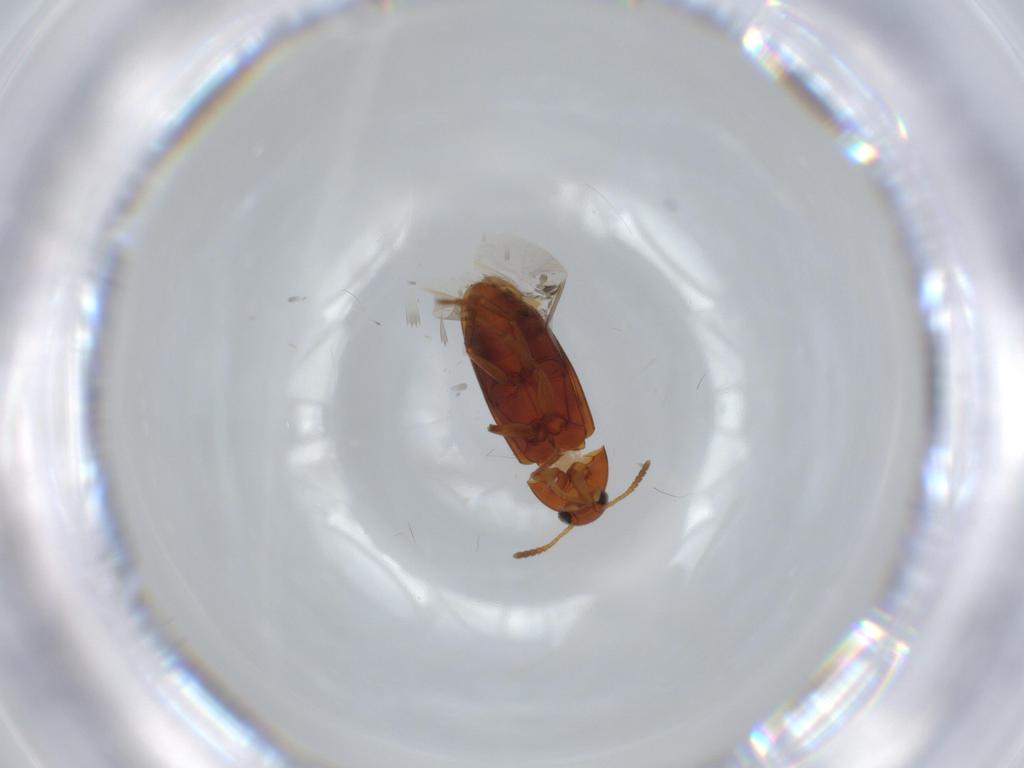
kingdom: Animalia
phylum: Arthropoda
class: Insecta
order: Coleoptera
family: Scraptiidae
